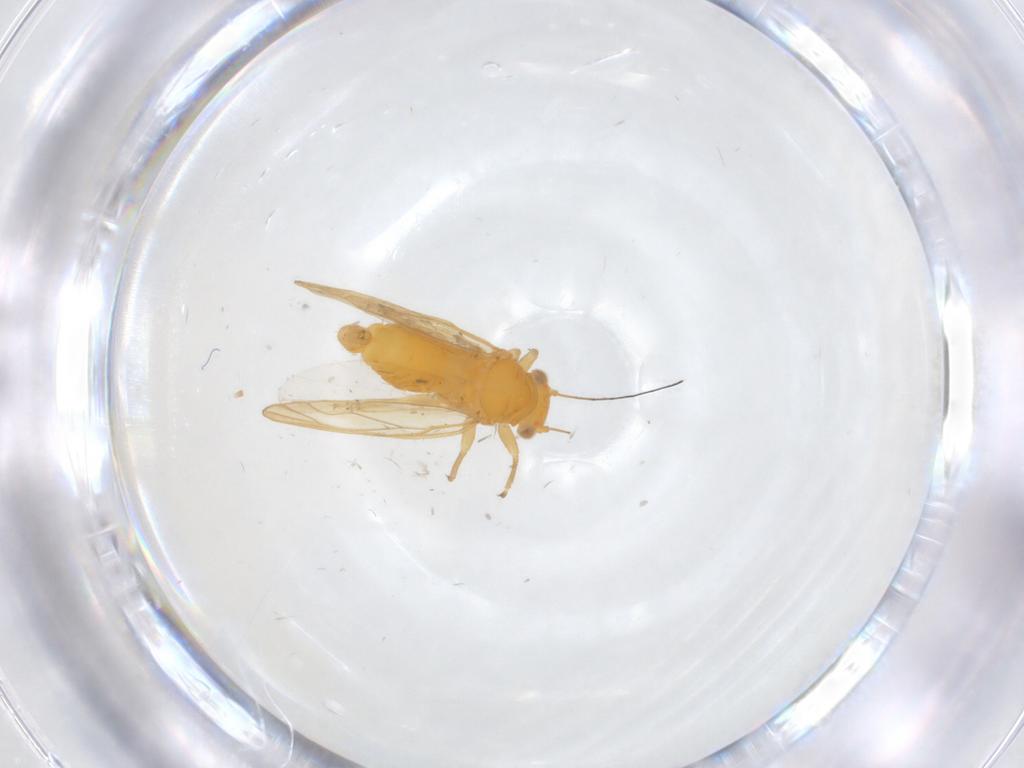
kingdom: Animalia
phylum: Arthropoda
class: Insecta
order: Hemiptera
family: Psyllidae
